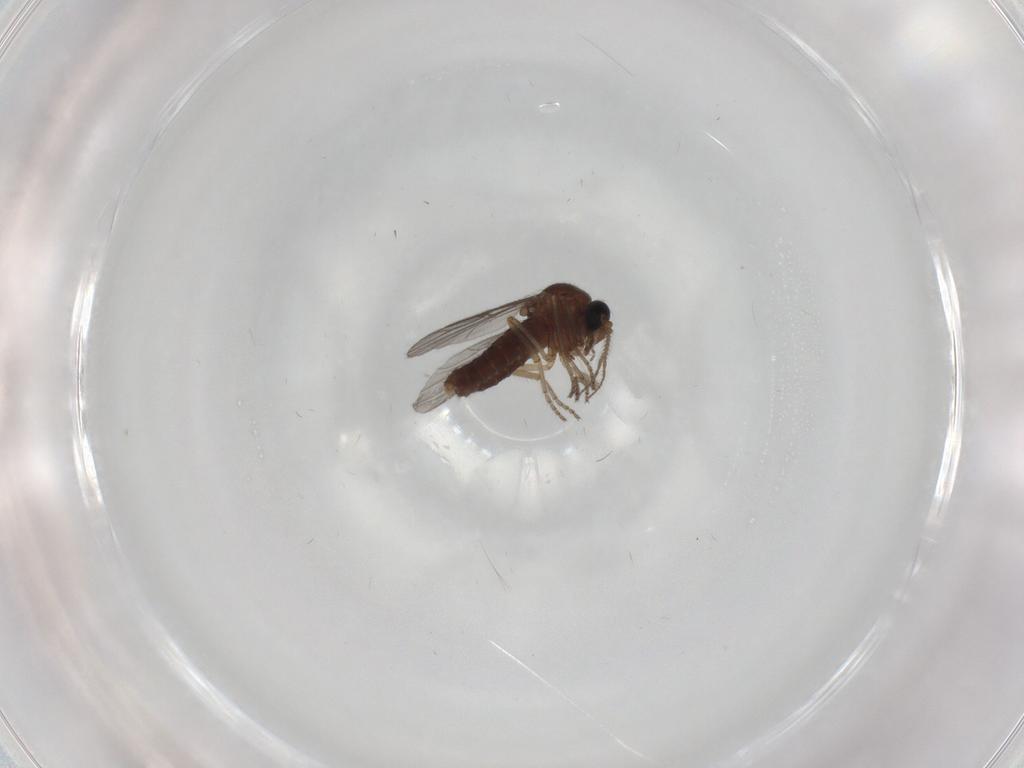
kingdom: Animalia
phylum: Arthropoda
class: Insecta
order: Diptera
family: Ceratopogonidae
